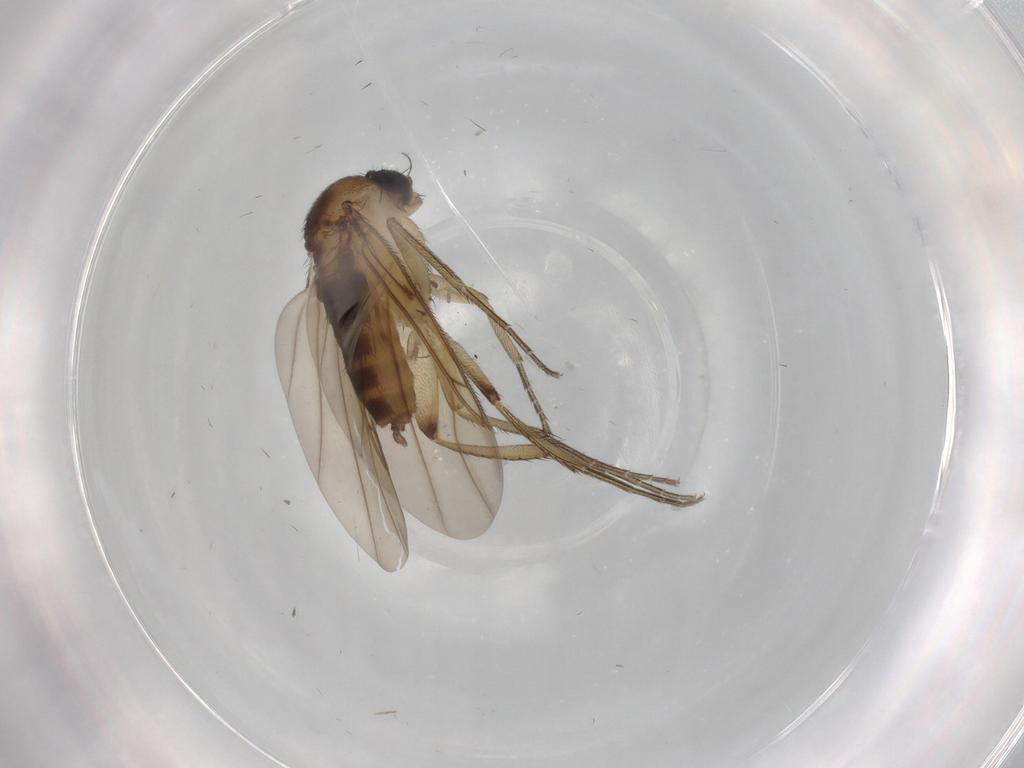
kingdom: Animalia
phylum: Arthropoda
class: Insecta
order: Diptera
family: Phoridae
